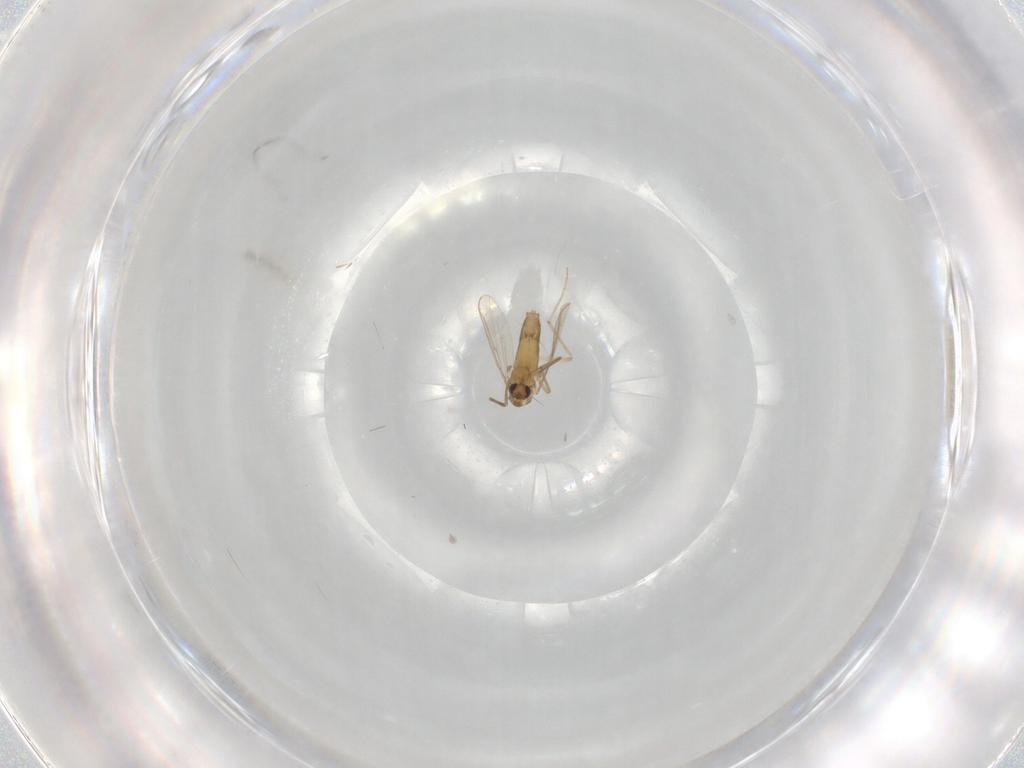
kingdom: Animalia
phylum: Arthropoda
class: Insecta
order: Diptera
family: Chironomidae
